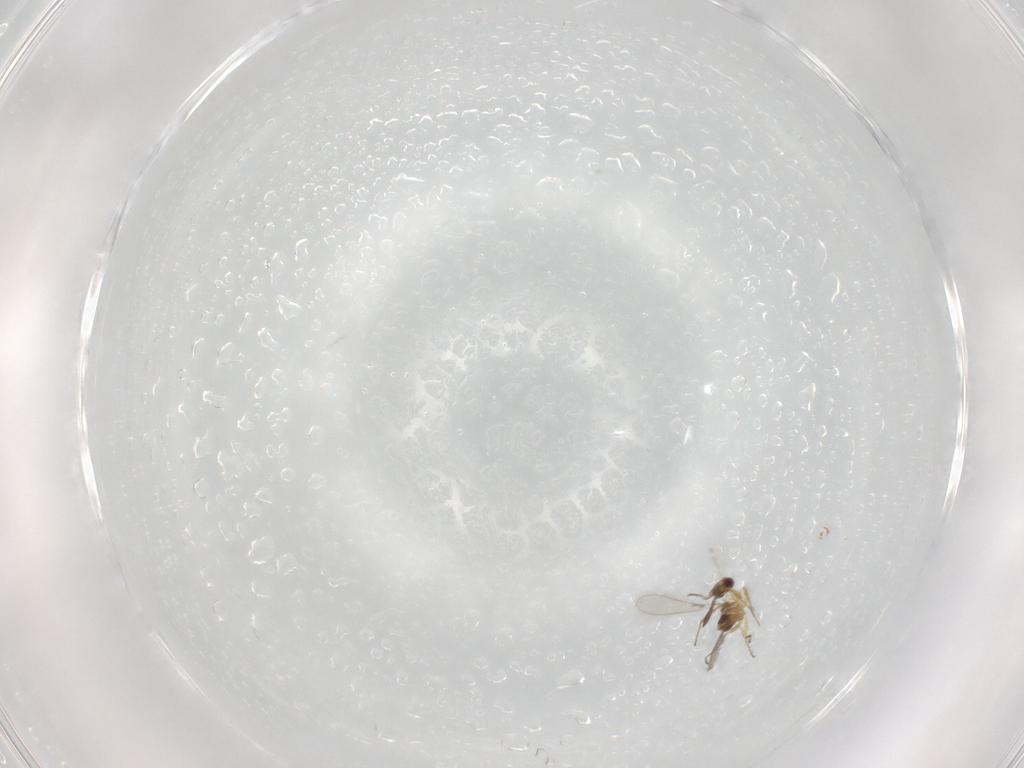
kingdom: Animalia
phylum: Arthropoda
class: Insecta
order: Hymenoptera
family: Mymaridae
